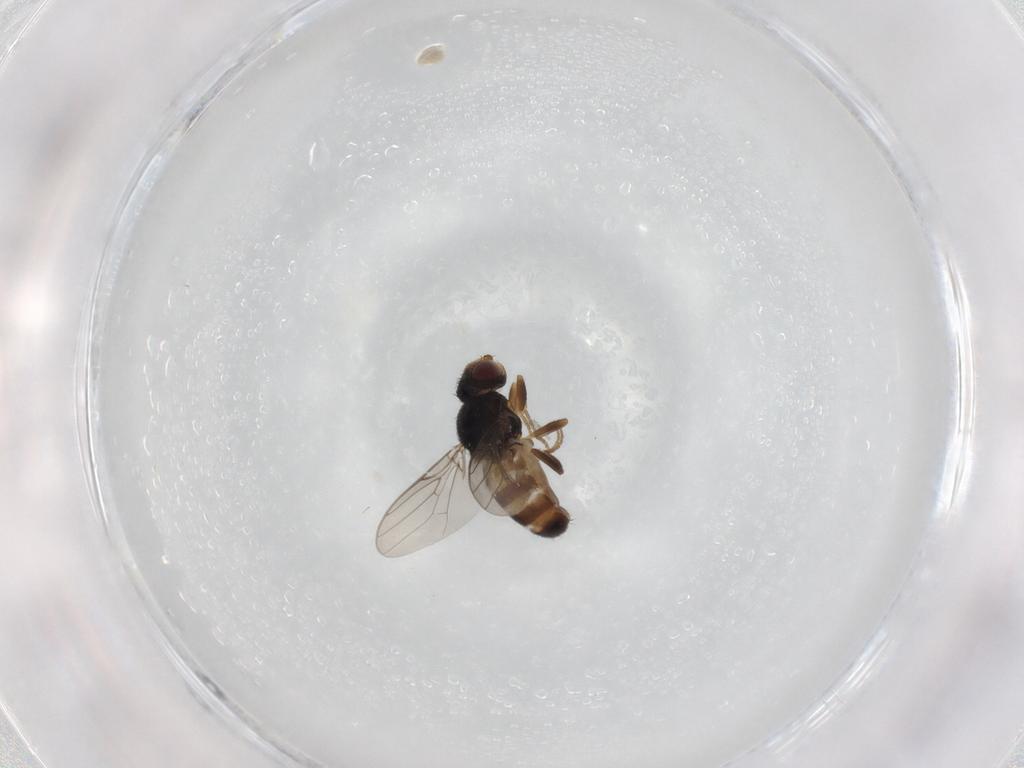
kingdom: Animalia
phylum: Arthropoda
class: Insecta
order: Diptera
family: Chloropidae
